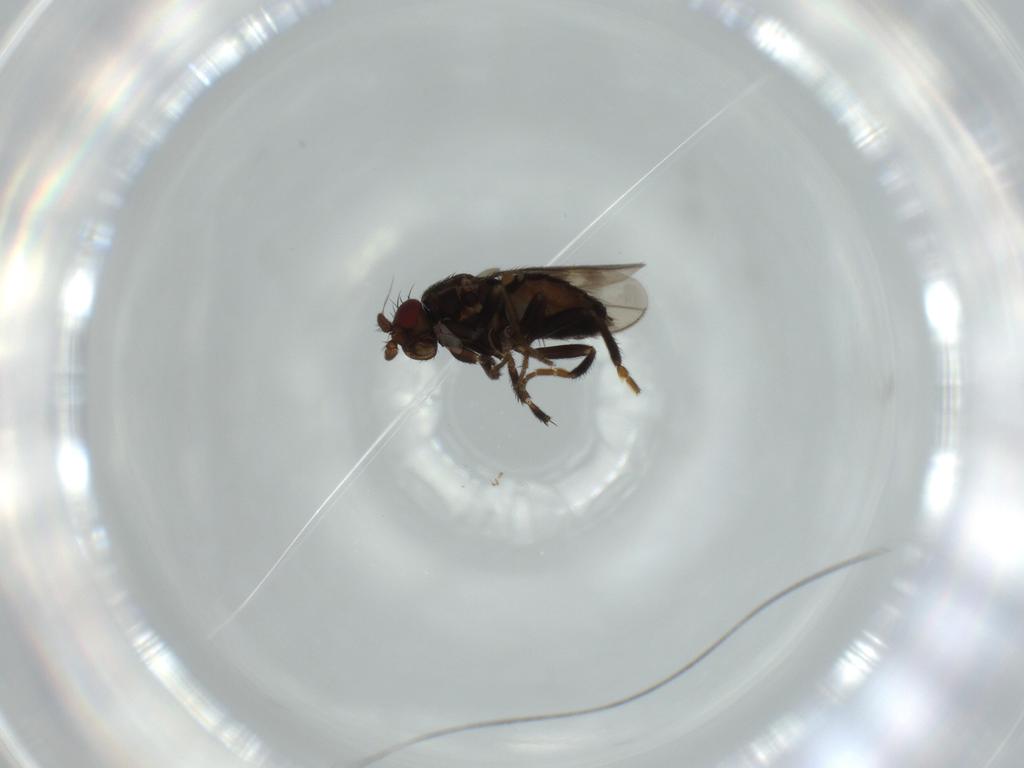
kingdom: Animalia
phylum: Arthropoda
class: Insecta
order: Diptera
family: Sphaeroceridae
